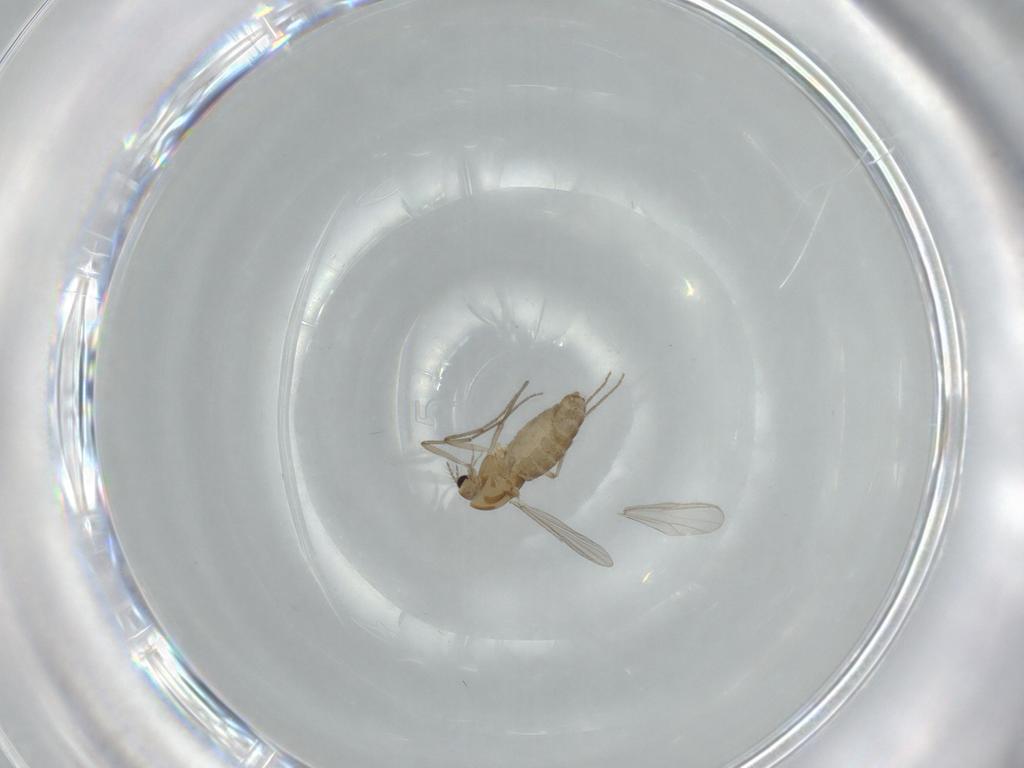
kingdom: Animalia
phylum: Arthropoda
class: Insecta
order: Diptera
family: Chironomidae
